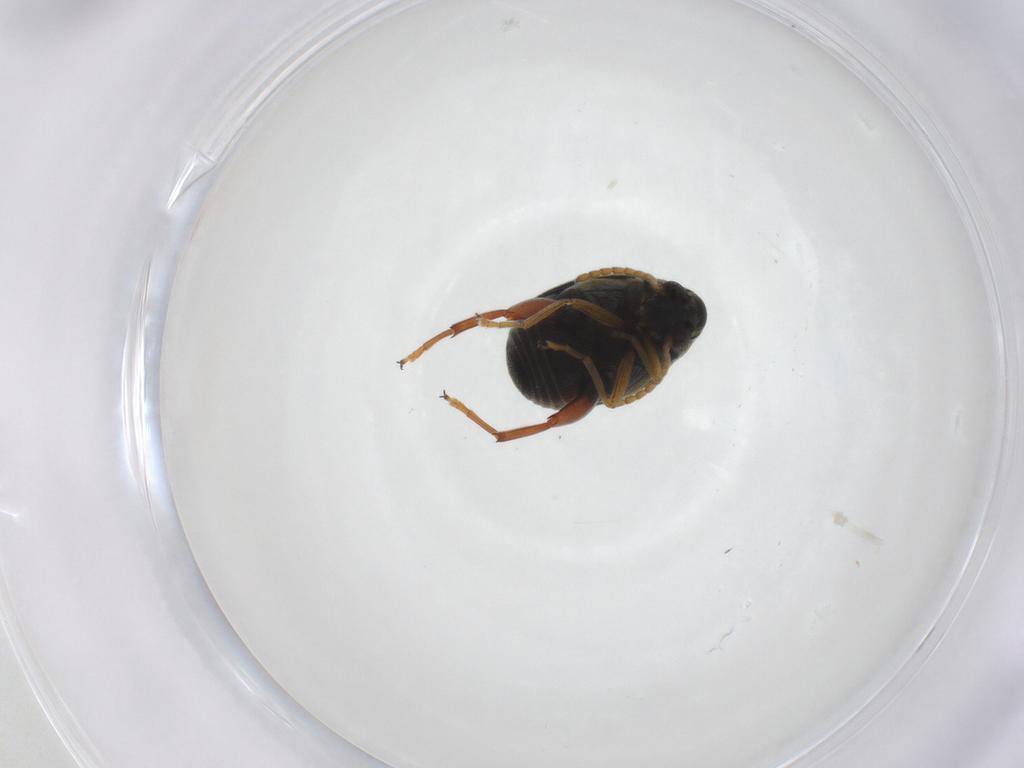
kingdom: Animalia
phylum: Arthropoda
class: Insecta
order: Coleoptera
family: Chrysomelidae
